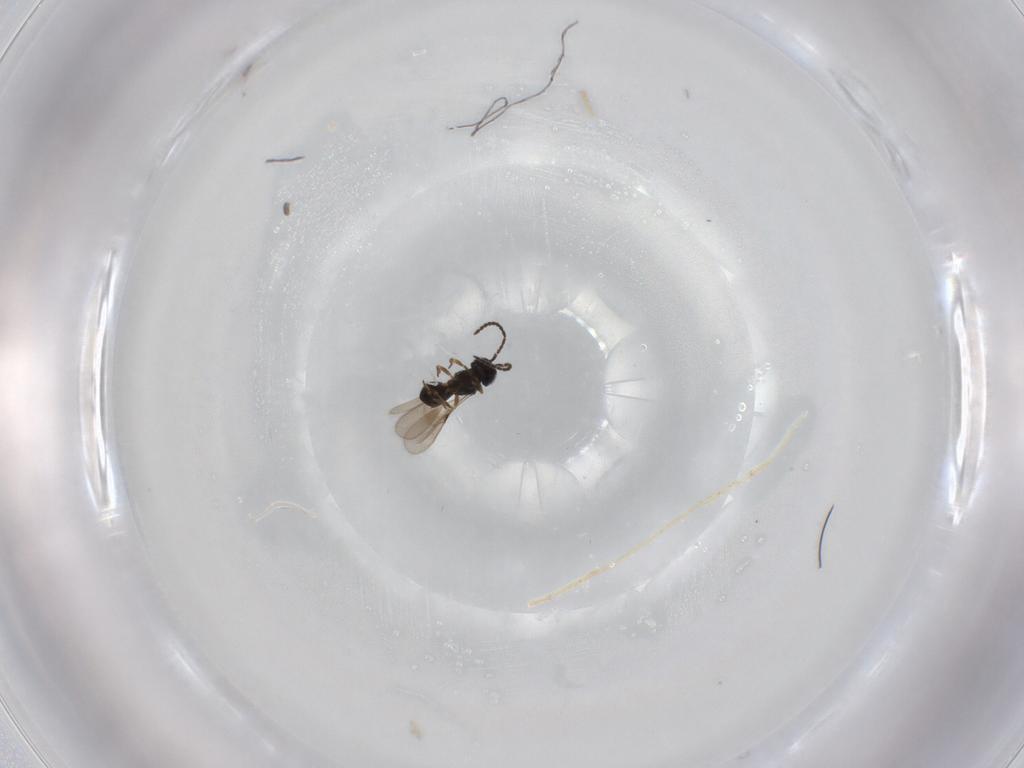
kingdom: Animalia
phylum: Arthropoda
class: Insecta
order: Hymenoptera
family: Scelionidae
